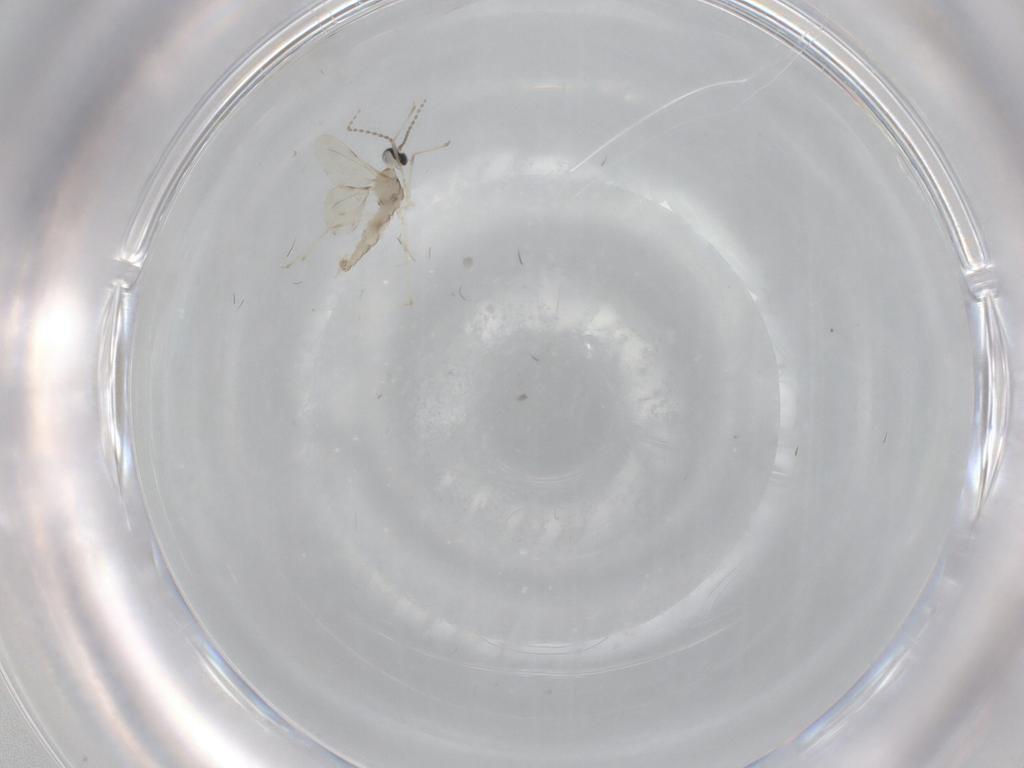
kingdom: Animalia
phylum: Arthropoda
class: Insecta
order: Diptera
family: Cecidomyiidae
